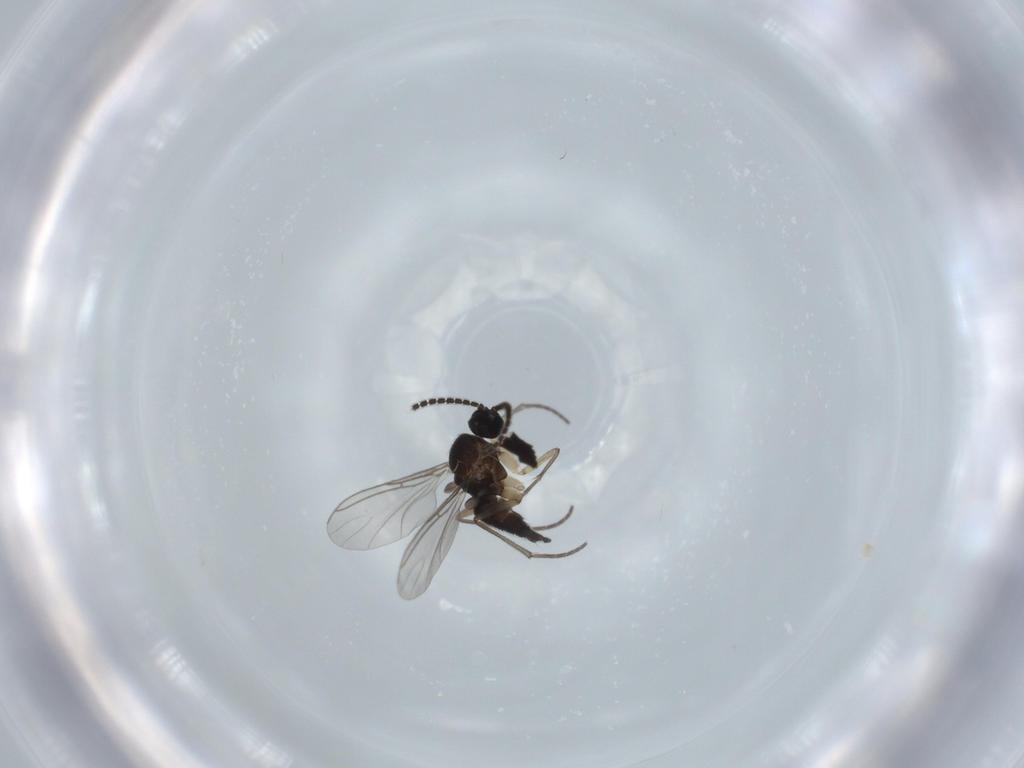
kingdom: Animalia
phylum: Arthropoda
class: Insecta
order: Diptera
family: Sciaridae
